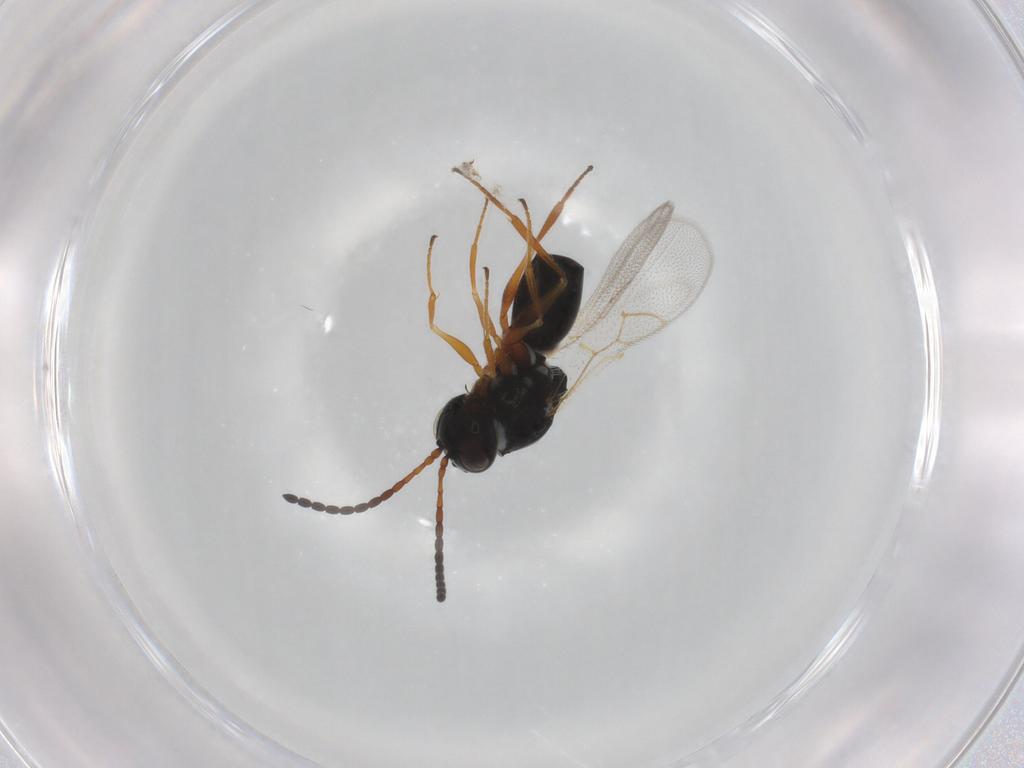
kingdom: Animalia
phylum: Arthropoda
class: Insecta
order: Hymenoptera
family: Figitidae
